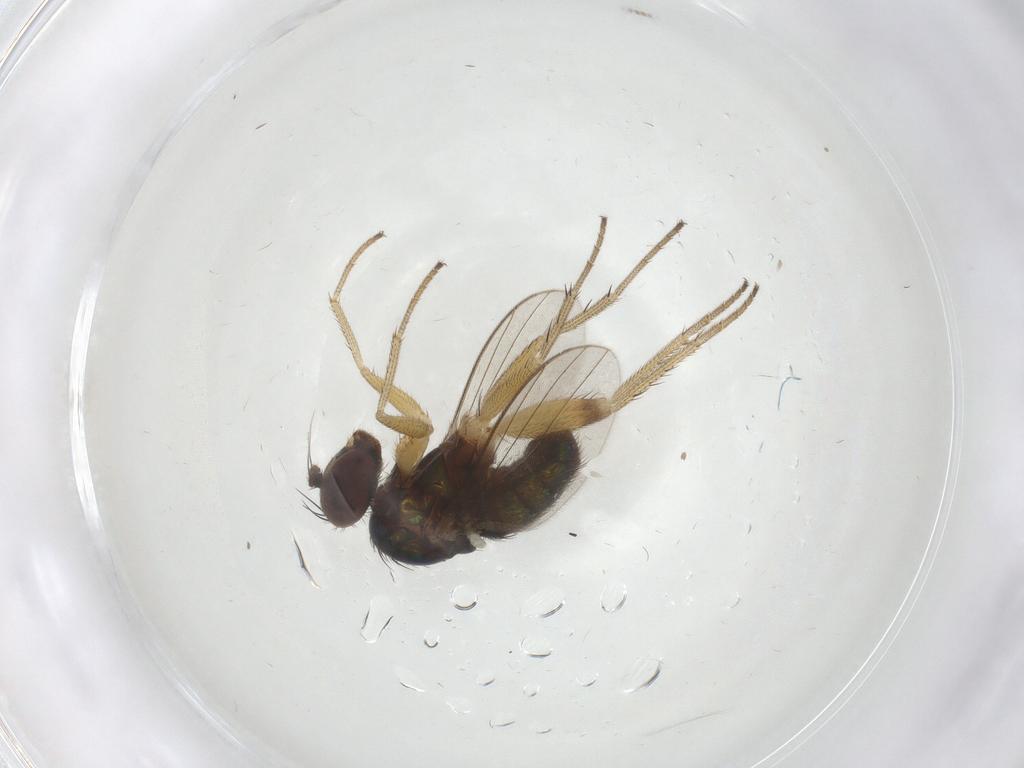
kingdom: Animalia
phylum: Arthropoda
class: Insecta
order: Diptera
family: Dolichopodidae
